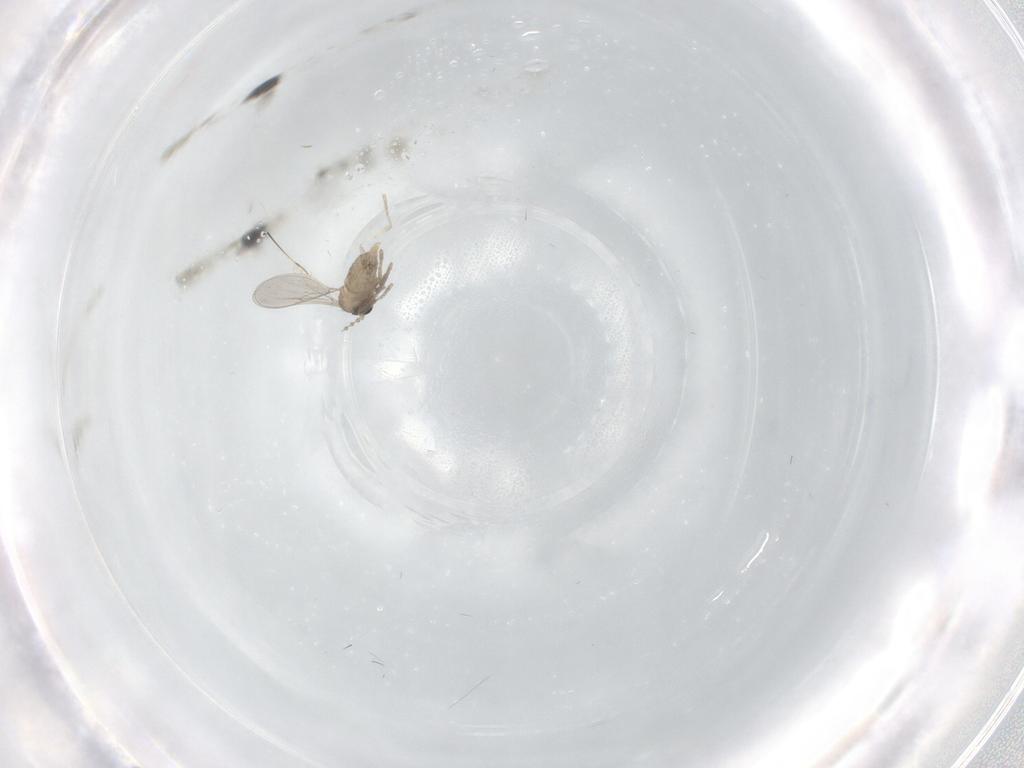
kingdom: Animalia
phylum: Arthropoda
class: Insecta
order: Diptera
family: Cecidomyiidae
